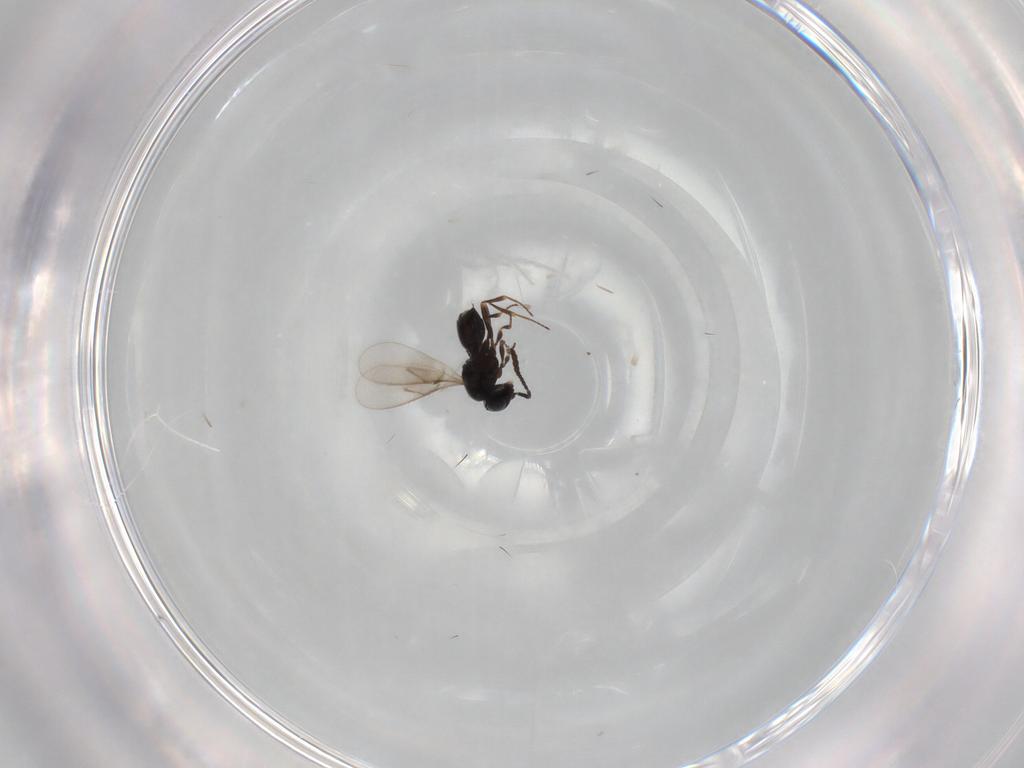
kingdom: Animalia
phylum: Arthropoda
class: Insecta
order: Hymenoptera
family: Scelionidae
